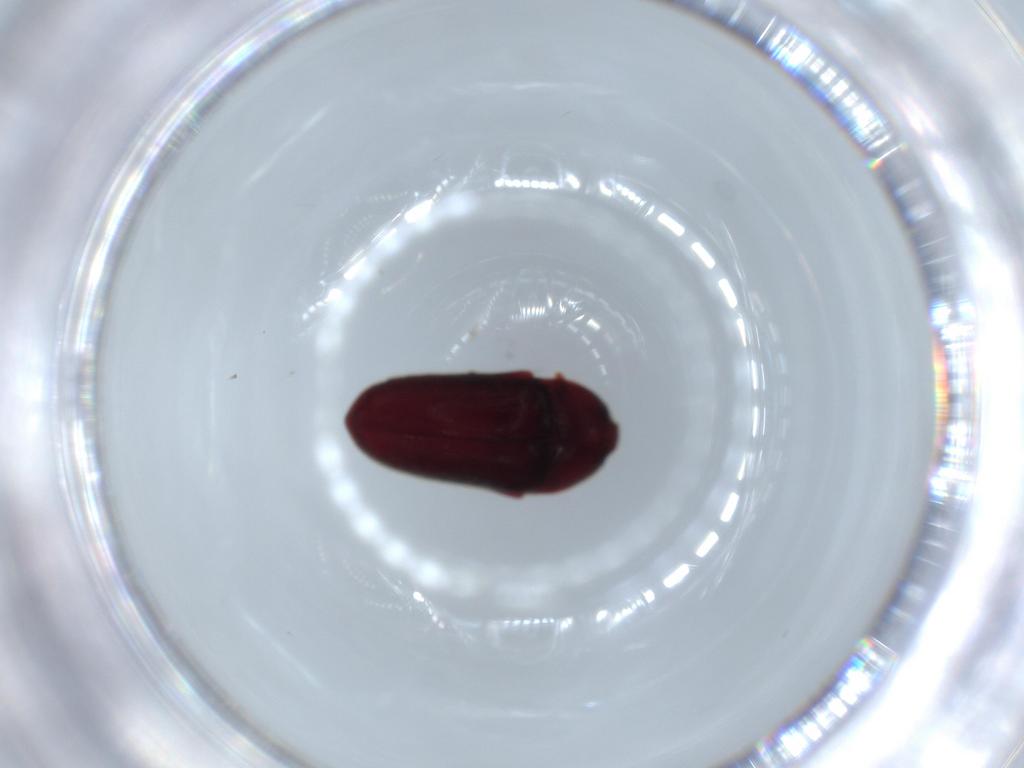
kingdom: Animalia
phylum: Arthropoda
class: Insecta
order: Coleoptera
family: Throscidae
